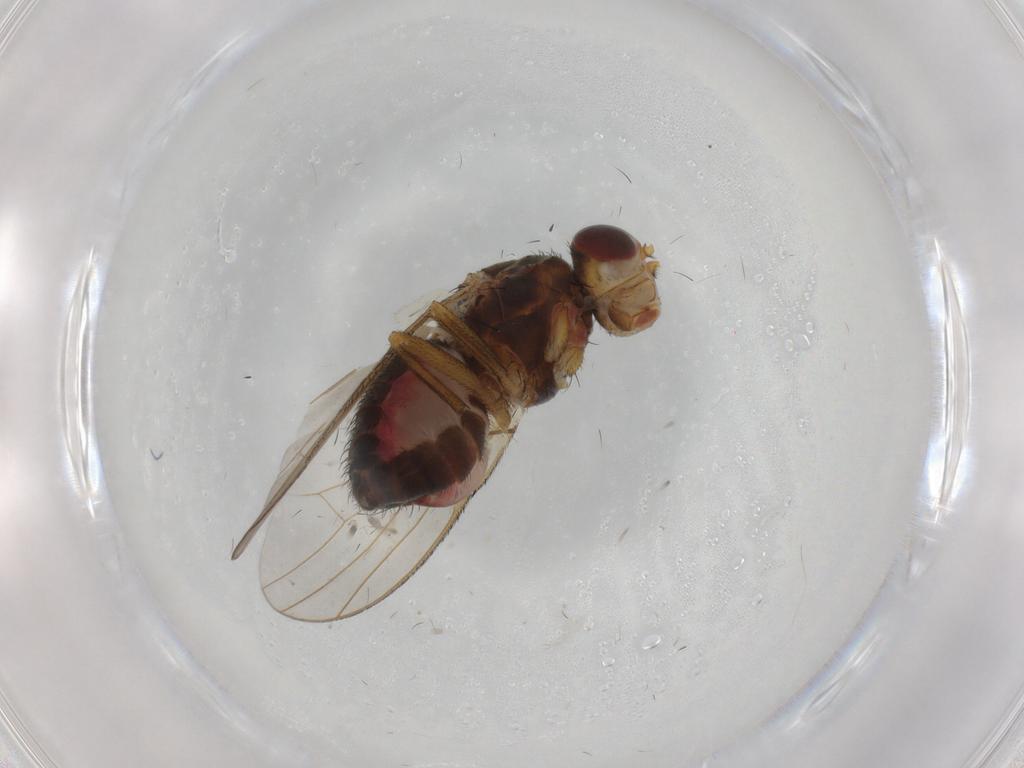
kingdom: Animalia
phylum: Arthropoda
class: Insecta
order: Diptera
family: Heleomyzidae
